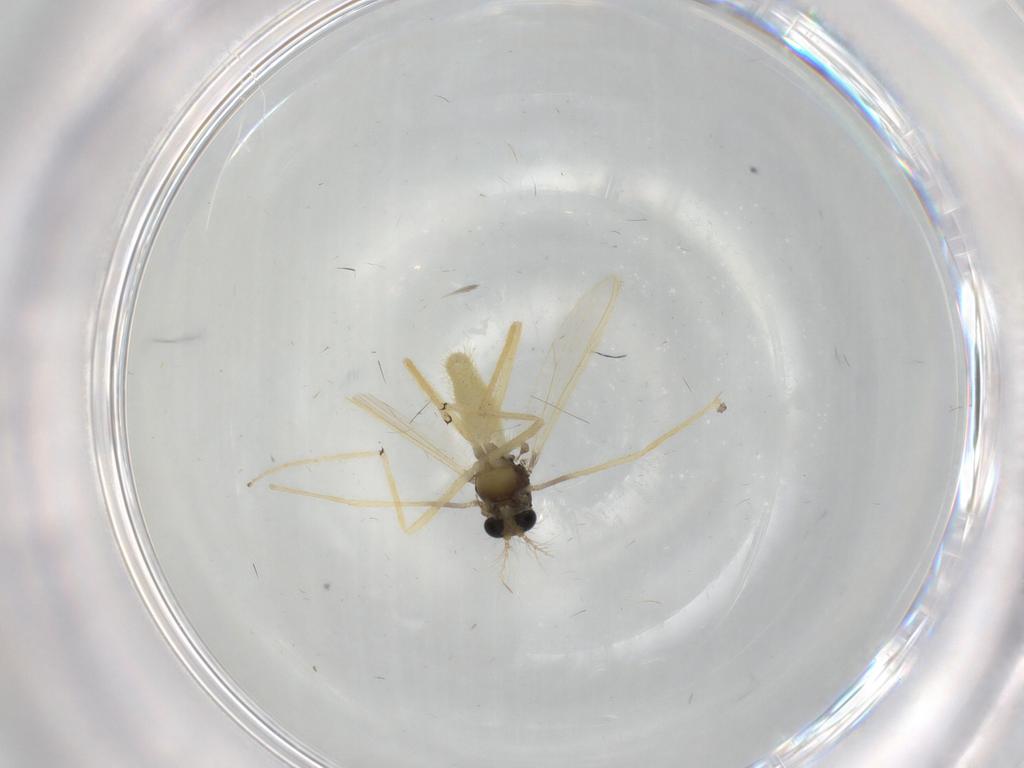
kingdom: Animalia
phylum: Arthropoda
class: Insecta
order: Diptera
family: Chironomidae
